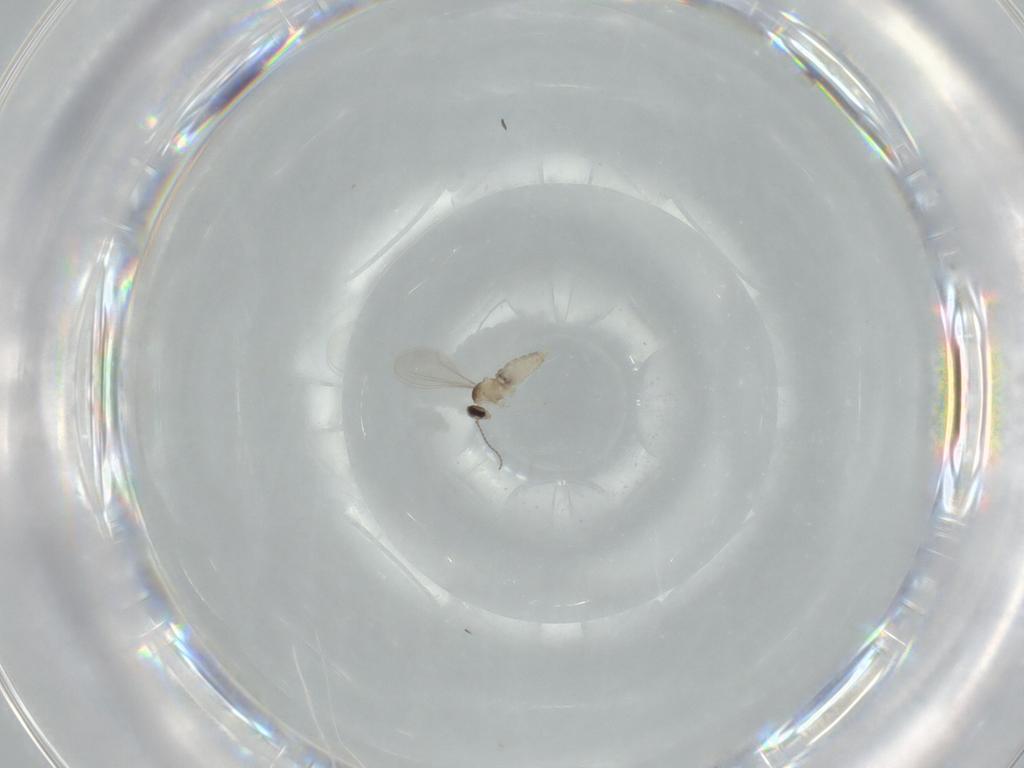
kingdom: Animalia
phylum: Arthropoda
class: Insecta
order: Diptera
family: Cecidomyiidae
